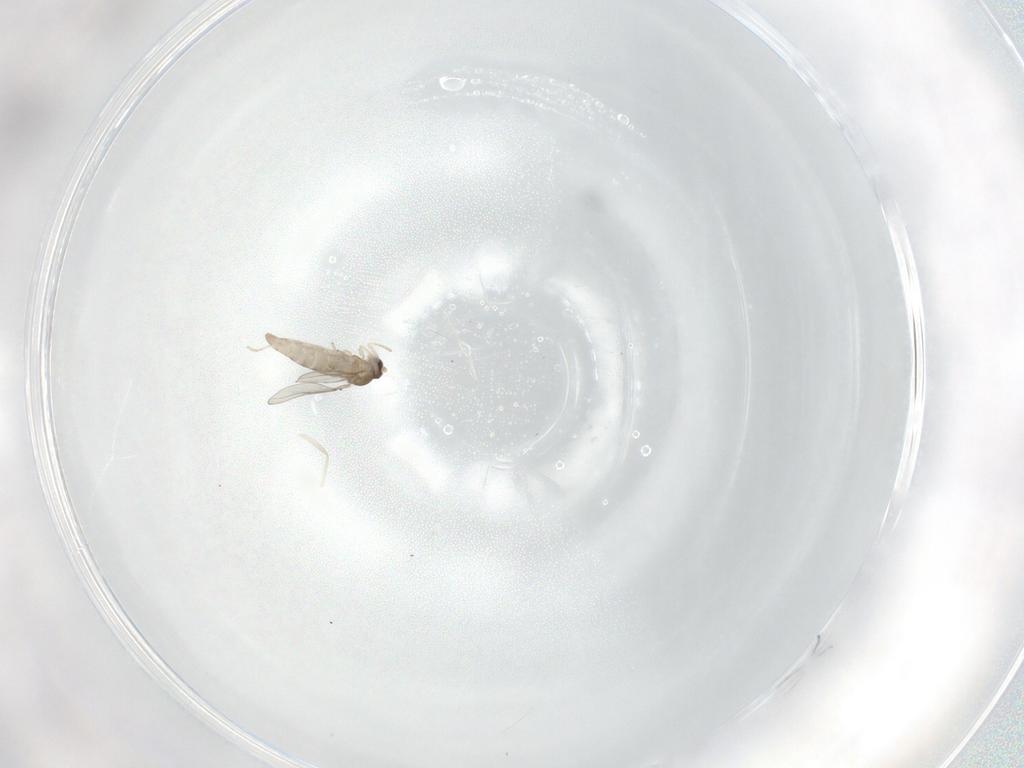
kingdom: Animalia
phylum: Arthropoda
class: Insecta
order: Diptera
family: Cecidomyiidae
